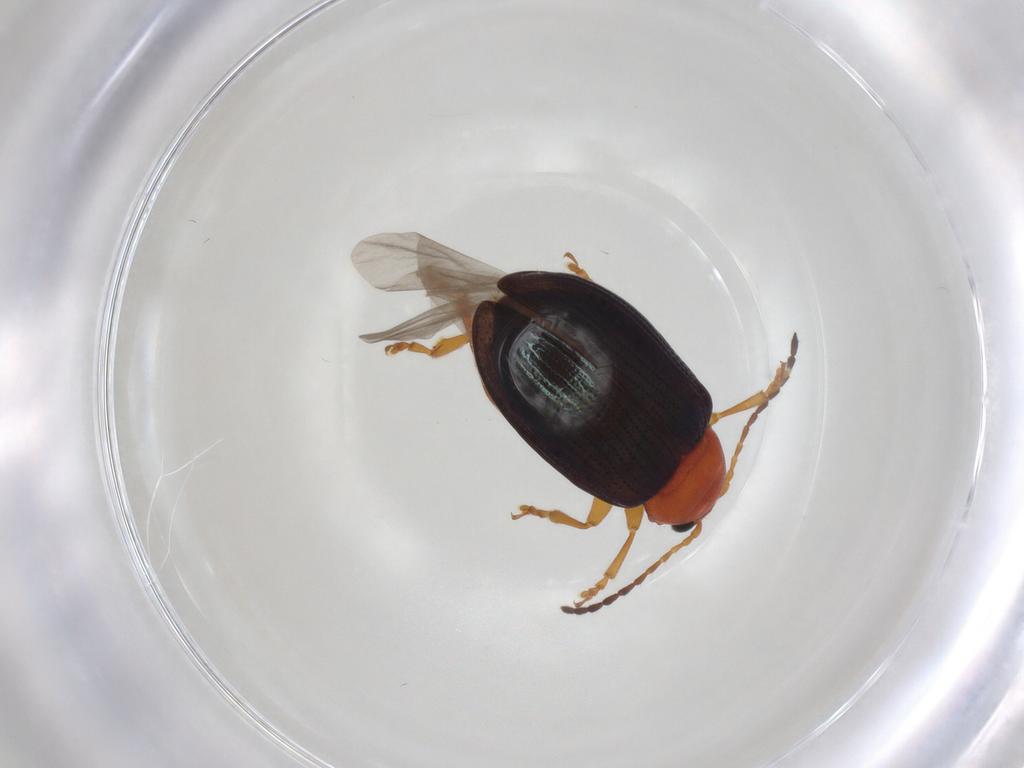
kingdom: Animalia
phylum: Arthropoda
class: Insecta
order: Coleoptera
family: Chrysomelidae
